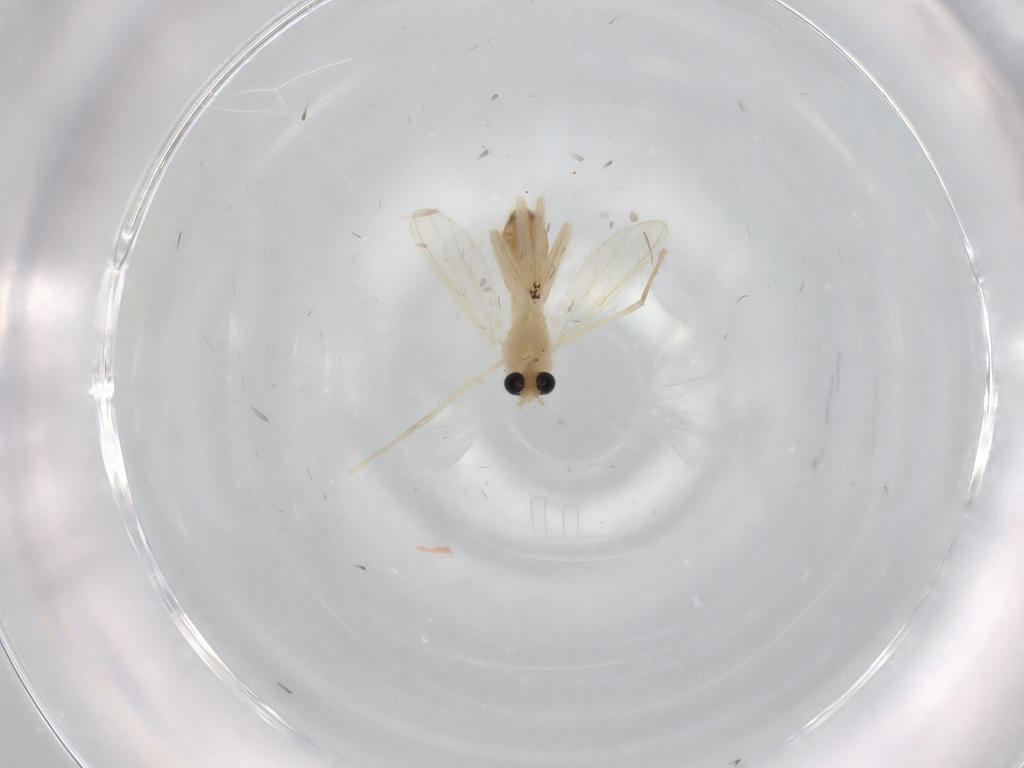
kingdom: Animalia
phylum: Arthropoda
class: Insecta
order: Diptera
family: Chironomidae
